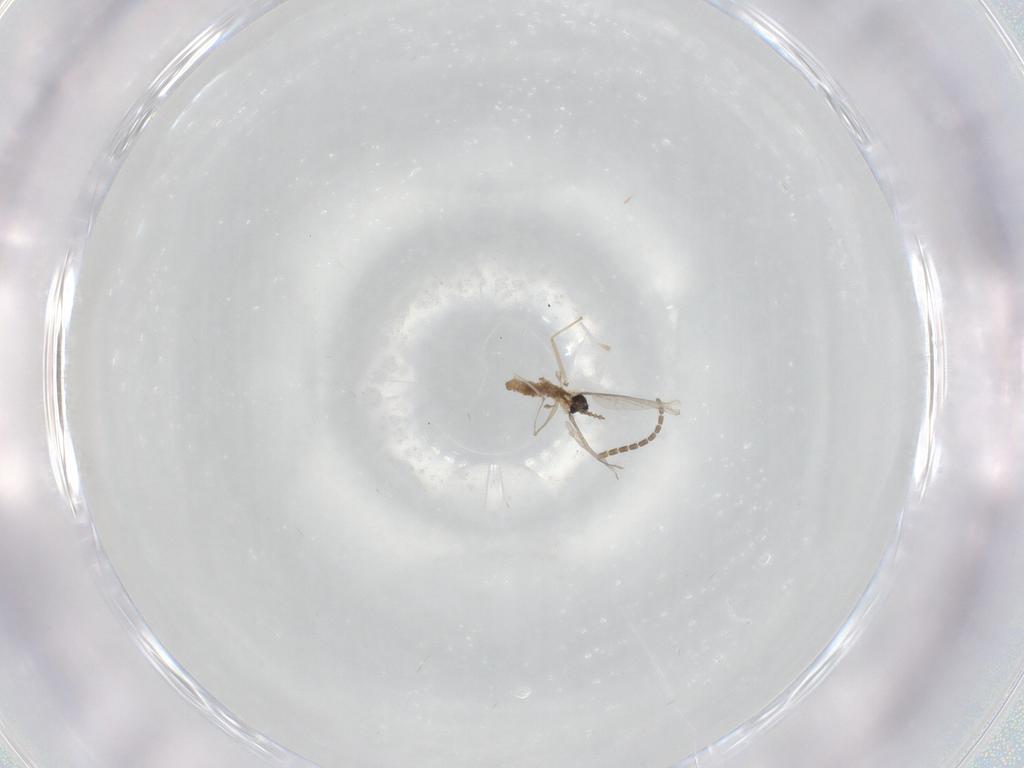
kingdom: Animalia
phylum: Arthropoda
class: Insecta
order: Diptera
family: Cecidomyiidae
